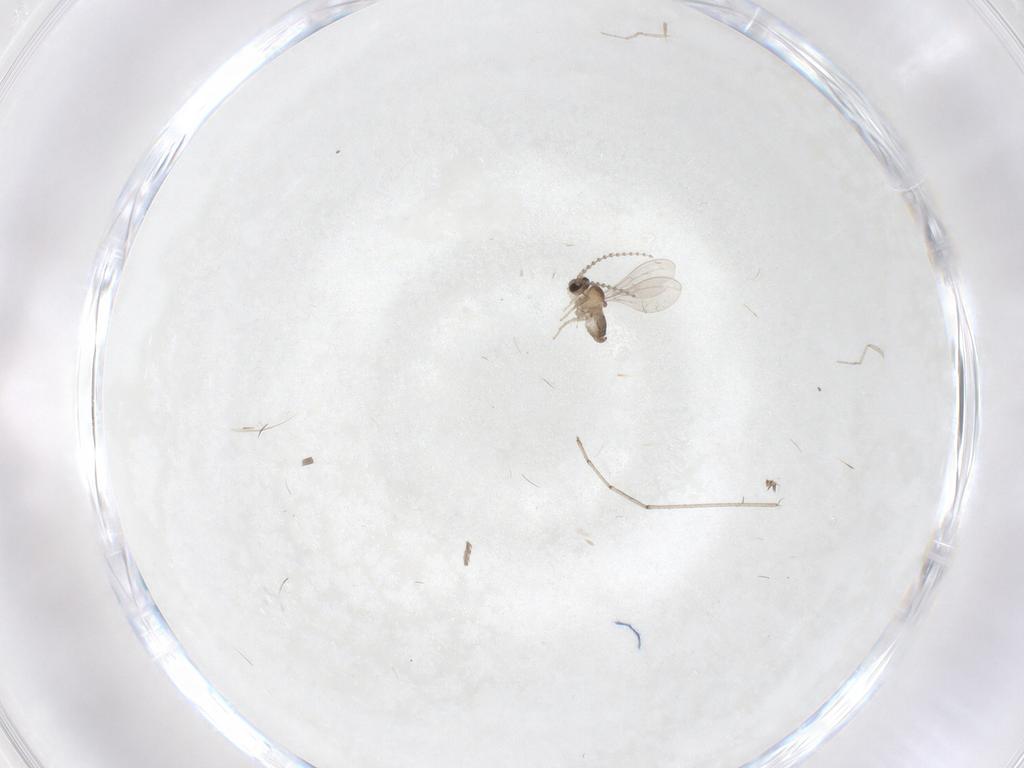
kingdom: Animalia
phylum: Arthropoda
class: Insecta
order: Diptera
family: Cecidomyiidae
